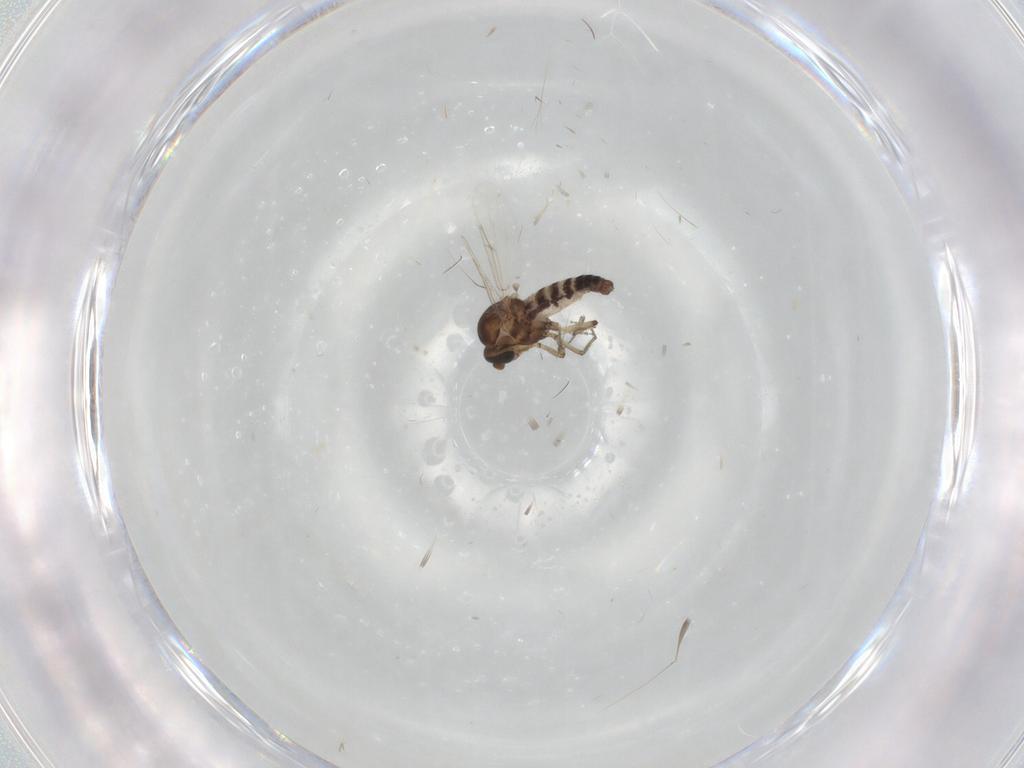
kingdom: Animalia
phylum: Arthropoda
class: Insecta
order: Diptera
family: Ceratopogonidae
